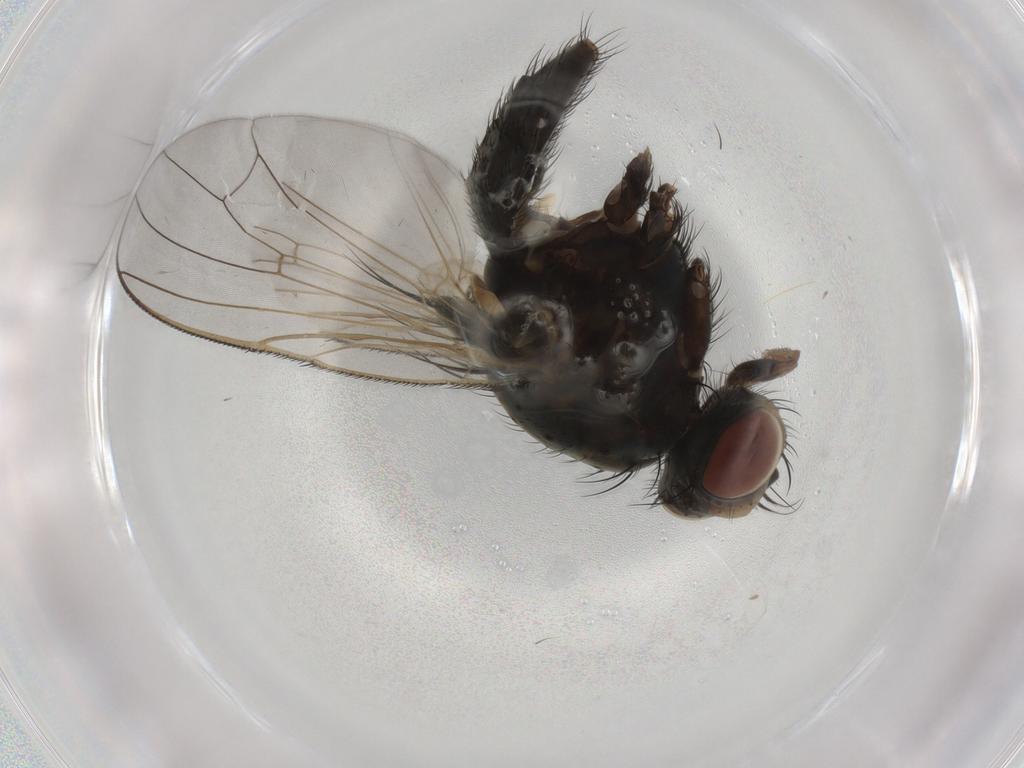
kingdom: Animalia
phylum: Arthropoda
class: Insecta
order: Diptera
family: Anthomyiidae
